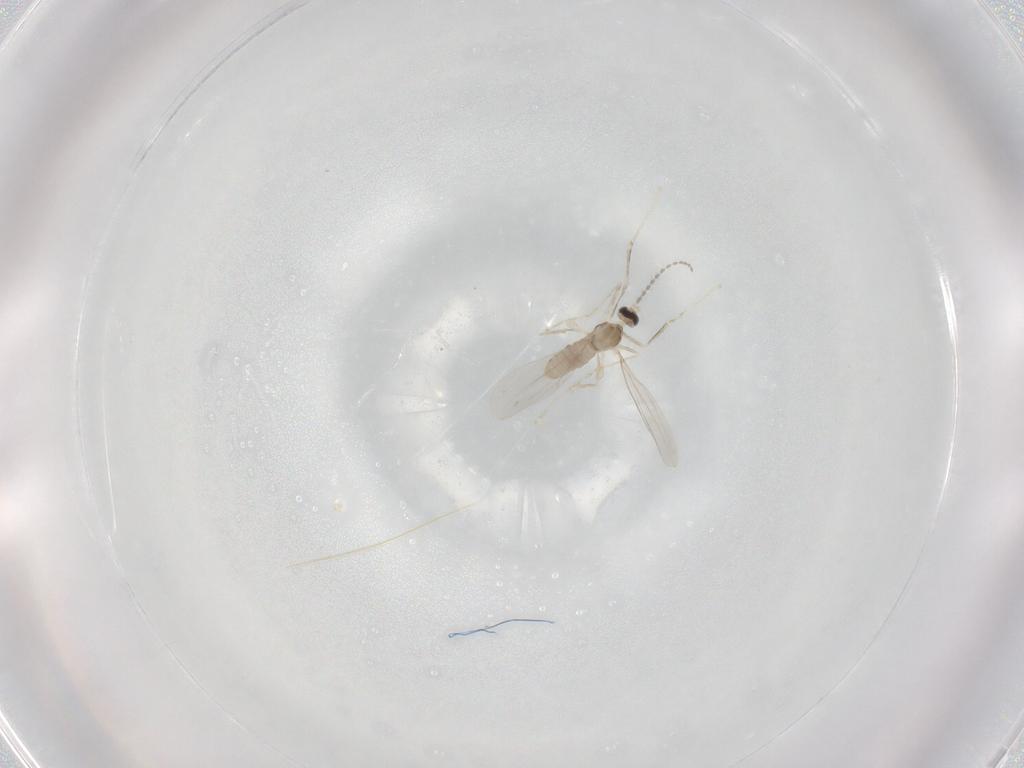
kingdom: Animalia
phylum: Arthropoda
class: Insecta
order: Diptera
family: Cecidomyiidae
